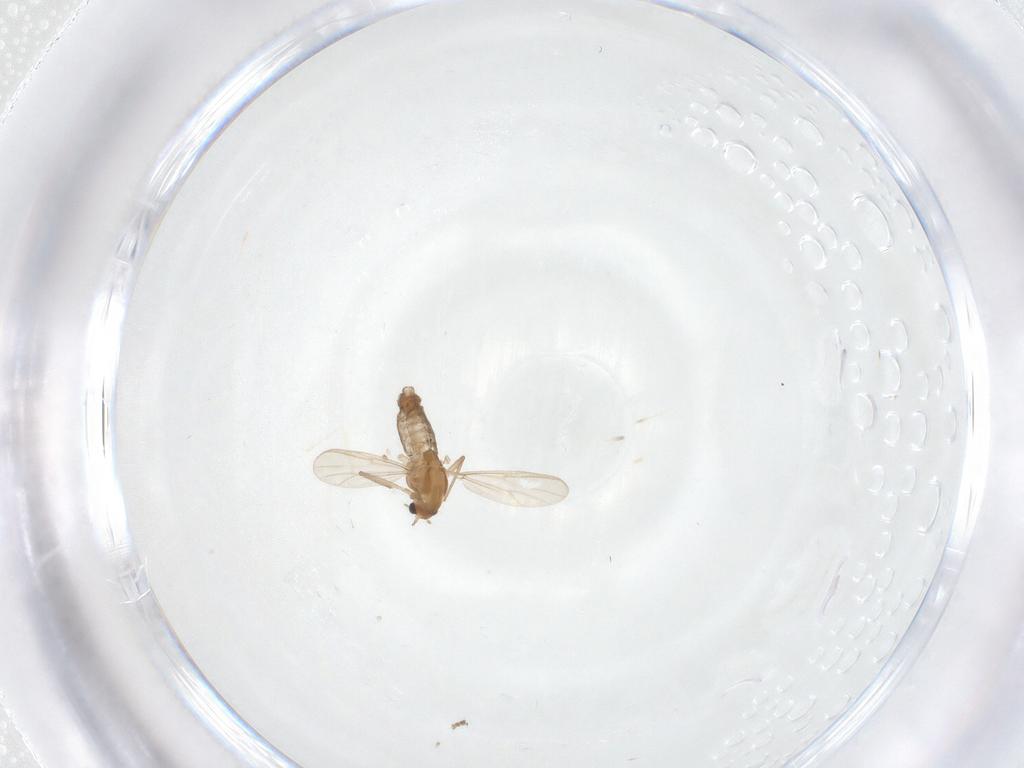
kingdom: Animalia
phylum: Arthropoda
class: Insecta
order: Diptera
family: Chironomidae
